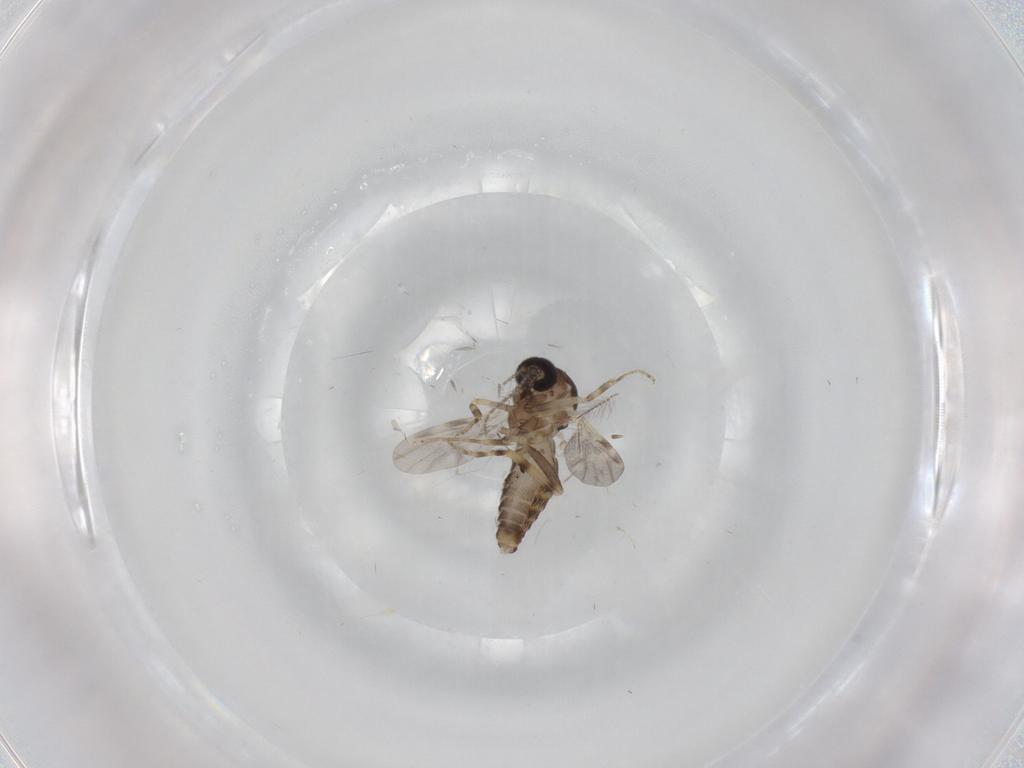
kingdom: Animalia
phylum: Arthropoda
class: Insecta
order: Diptera
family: Ceratopogonidae
